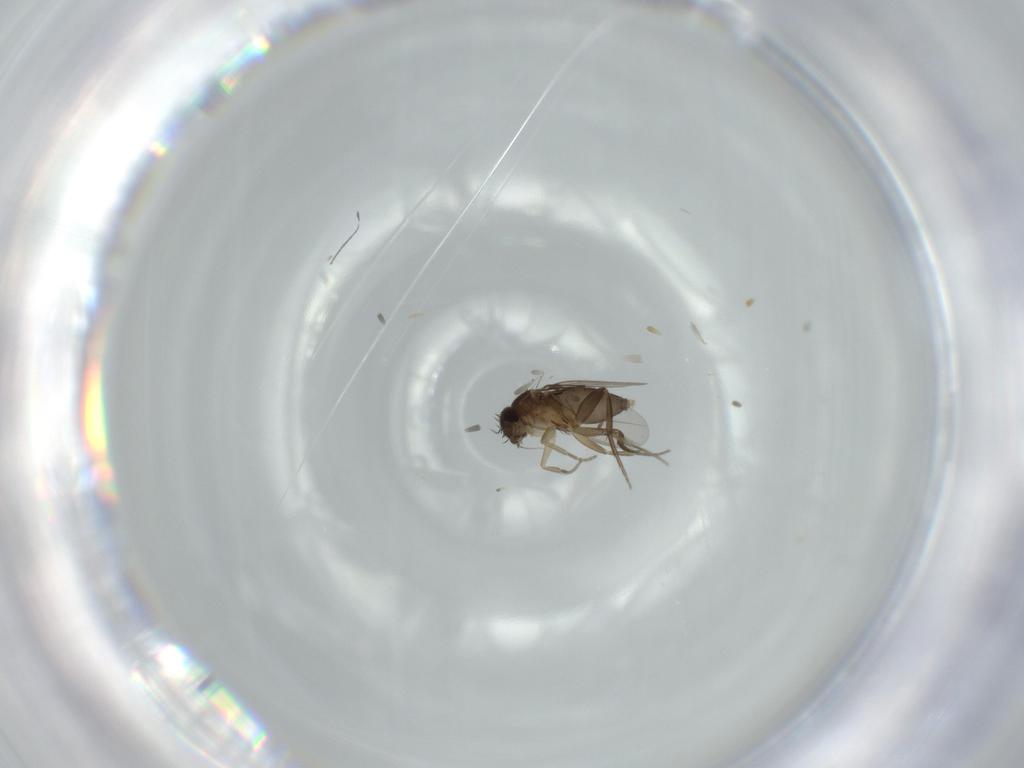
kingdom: Animalia
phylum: Arthropoda
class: Insecta
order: Diptera
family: Phoridae
